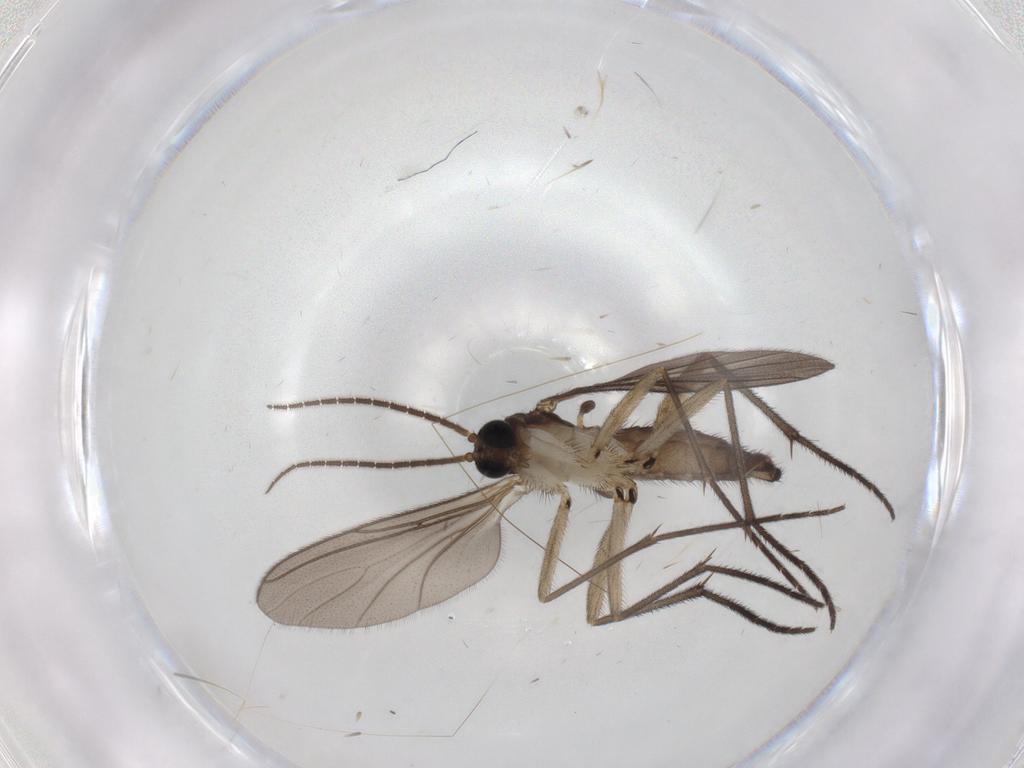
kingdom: Animalia
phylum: Arthropoda
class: Insecta
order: Diptera
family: Sciaridae
